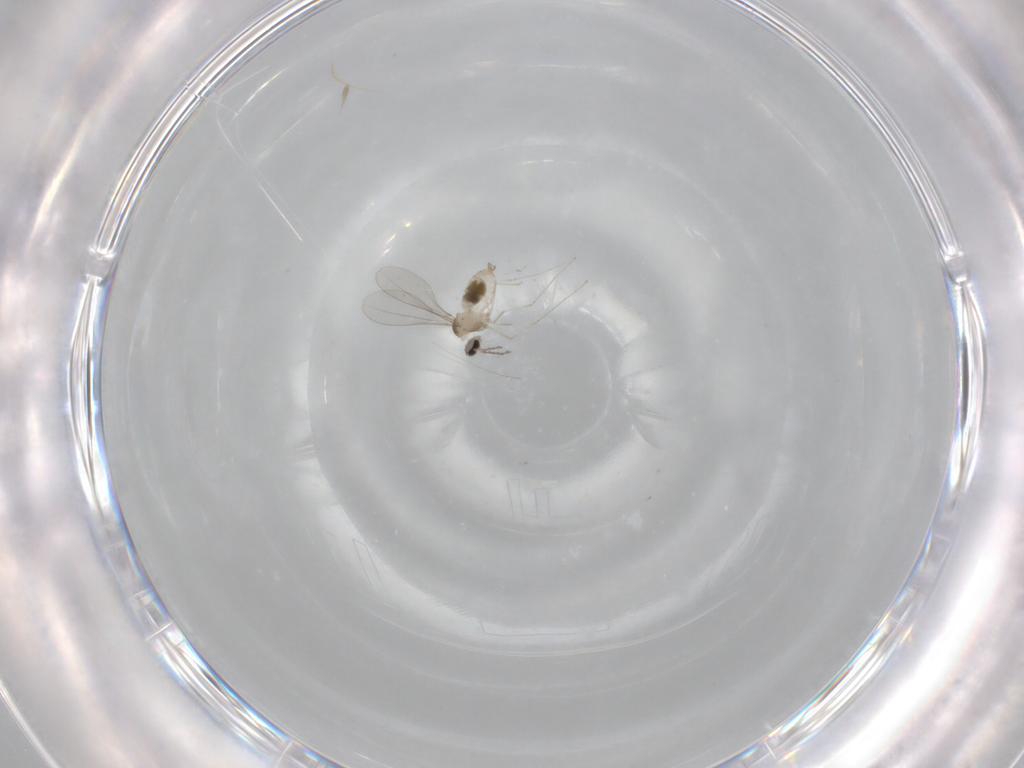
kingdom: Animalia
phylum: Arthropoda
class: Insecta
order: Diptera
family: Cecidomyiidae
